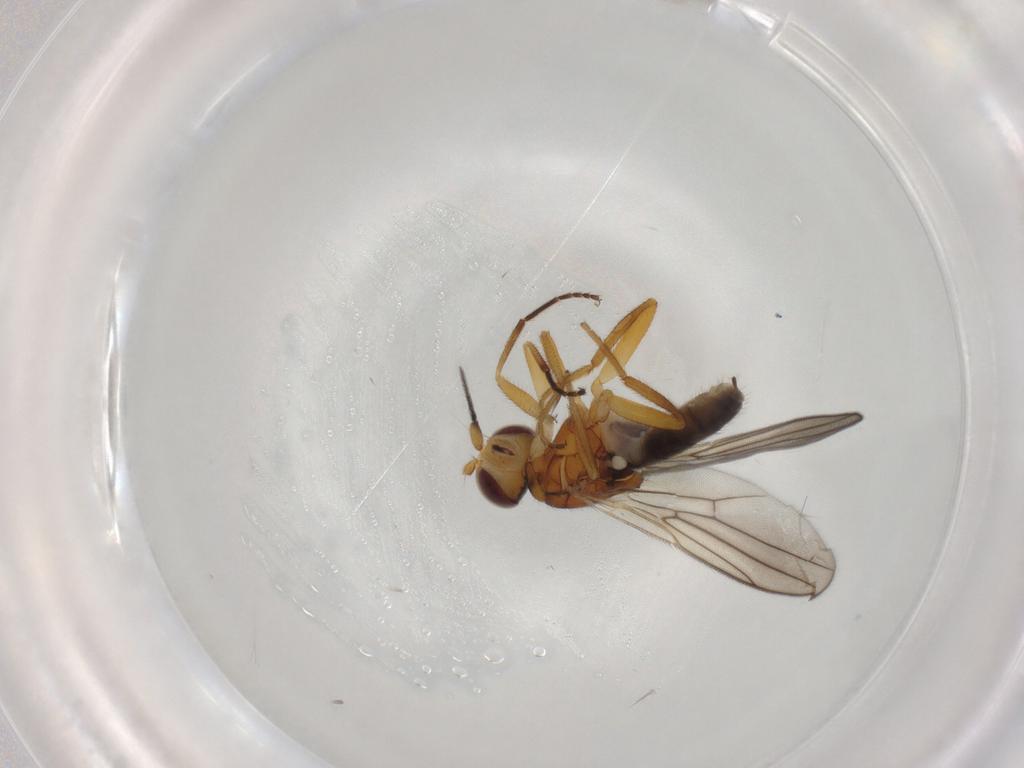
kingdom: Animalia
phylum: Arthropoda
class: Insecta
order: Diptera
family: Chloropidae
